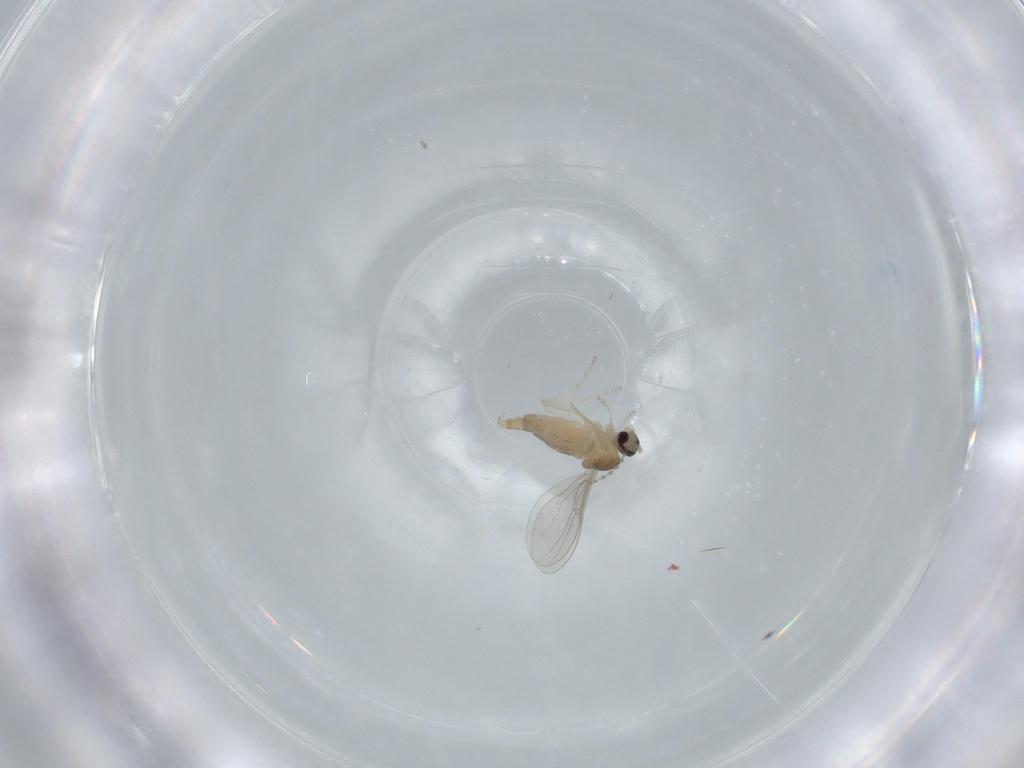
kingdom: Animalia
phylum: Arthropoda
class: Insecta
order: Diptera
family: Cecidomyiidae
